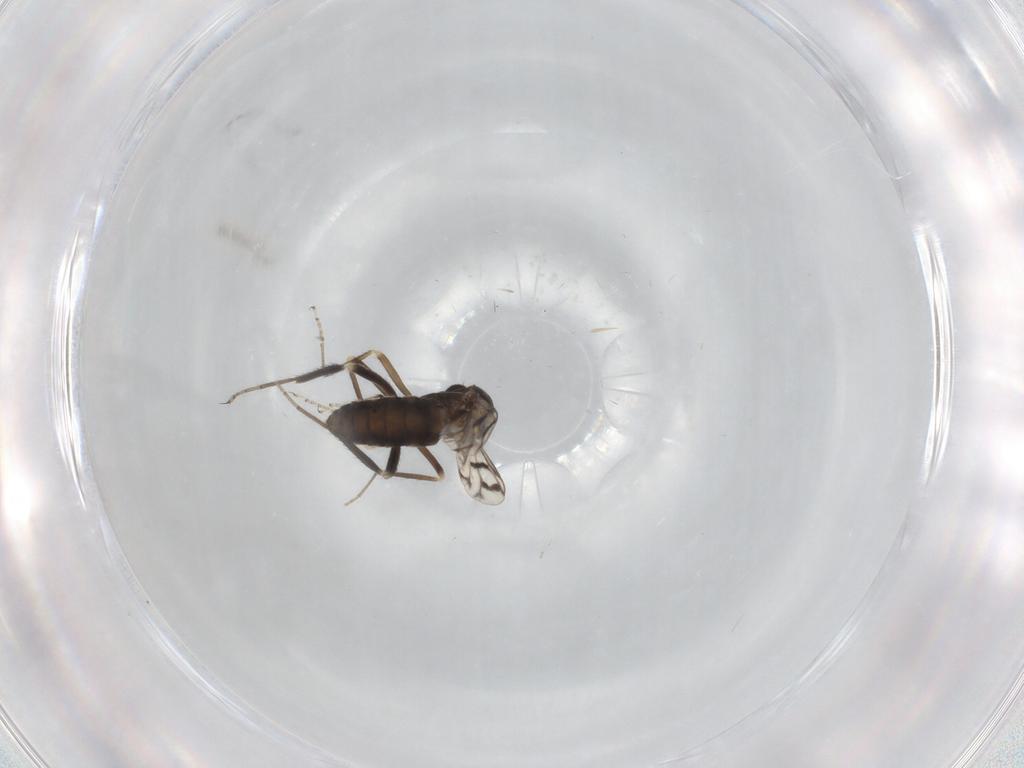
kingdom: Animalia
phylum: Arthropoda
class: Insecta
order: Diptera
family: Ceratopogonidae
